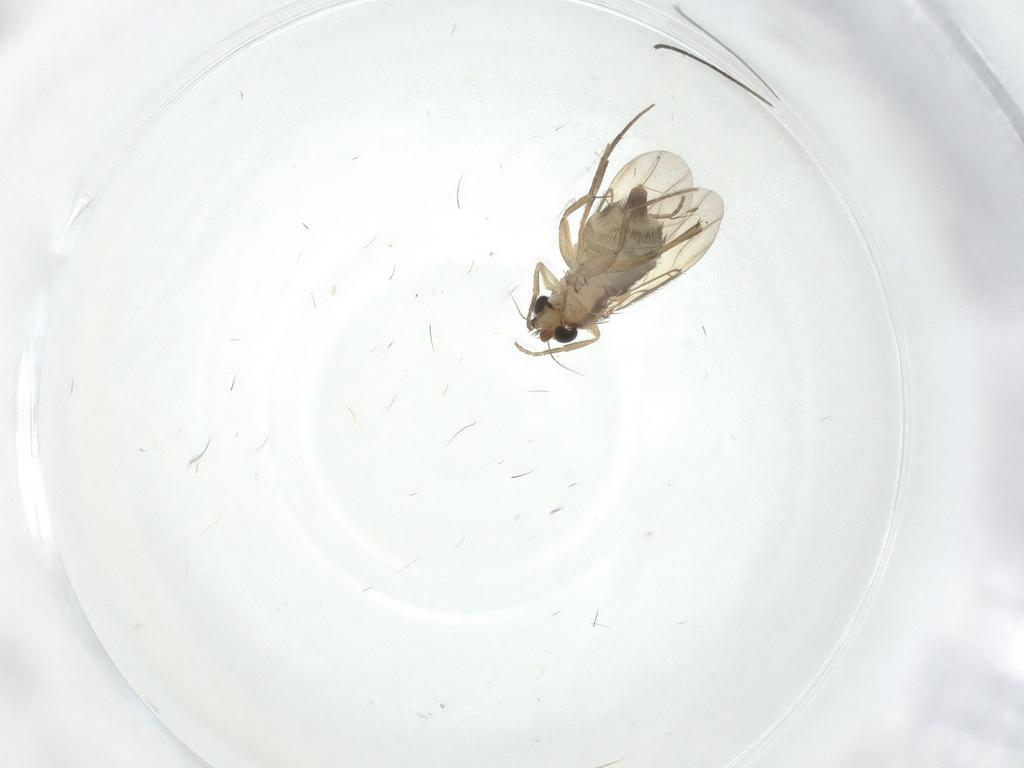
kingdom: Animalia
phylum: Arthropoda
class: Insecta
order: Diptera
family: Phoridae
